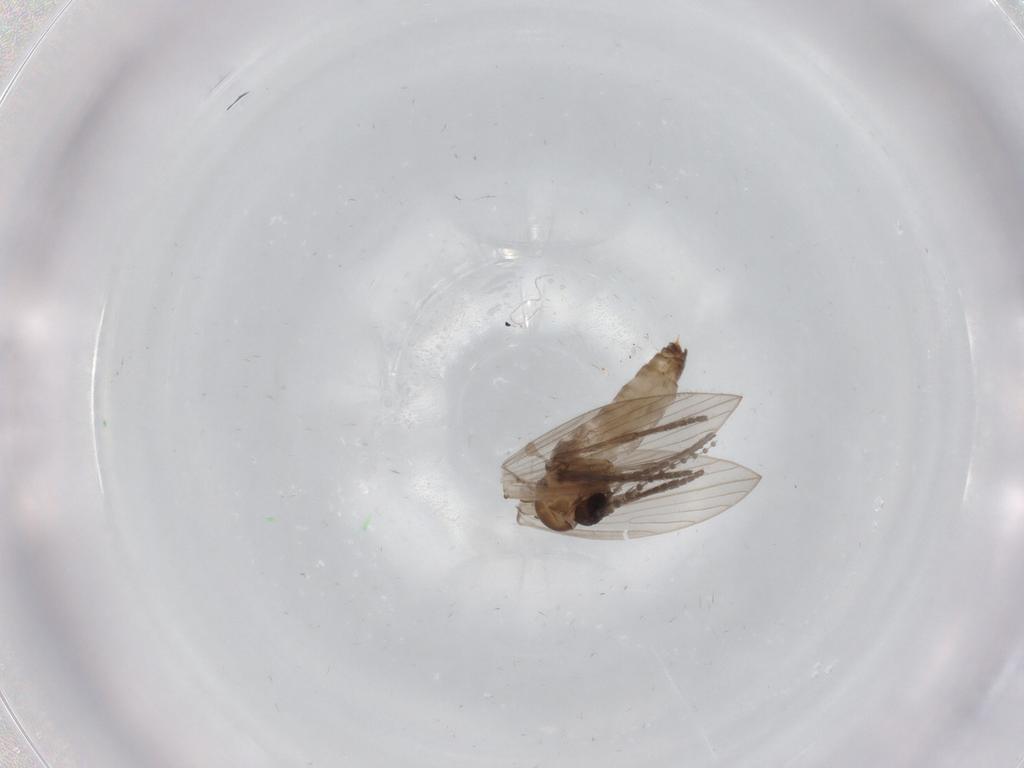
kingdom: Animalia
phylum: Arthropoda
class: Insecta
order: Diptera
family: Psychodidae
